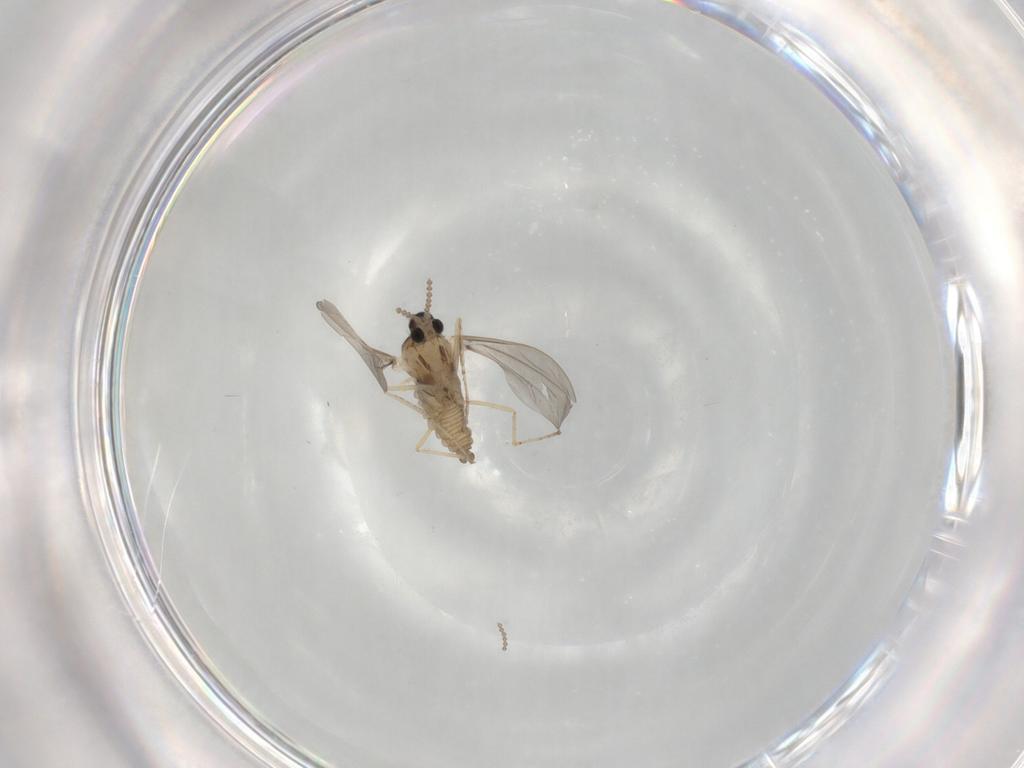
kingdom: Animalia
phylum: Arthropoda
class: Insecta
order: Diptera
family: Cecidomyiidae
